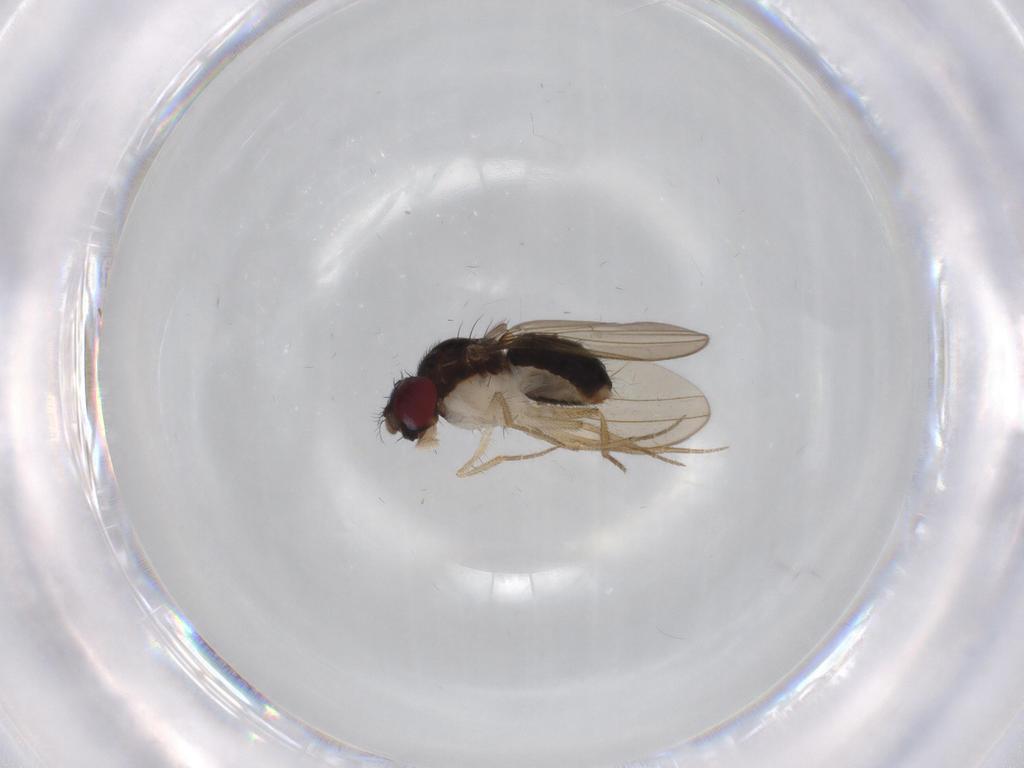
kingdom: Animalia
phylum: Arthropoda
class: Insecta
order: Diptera
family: Drosophilidae
